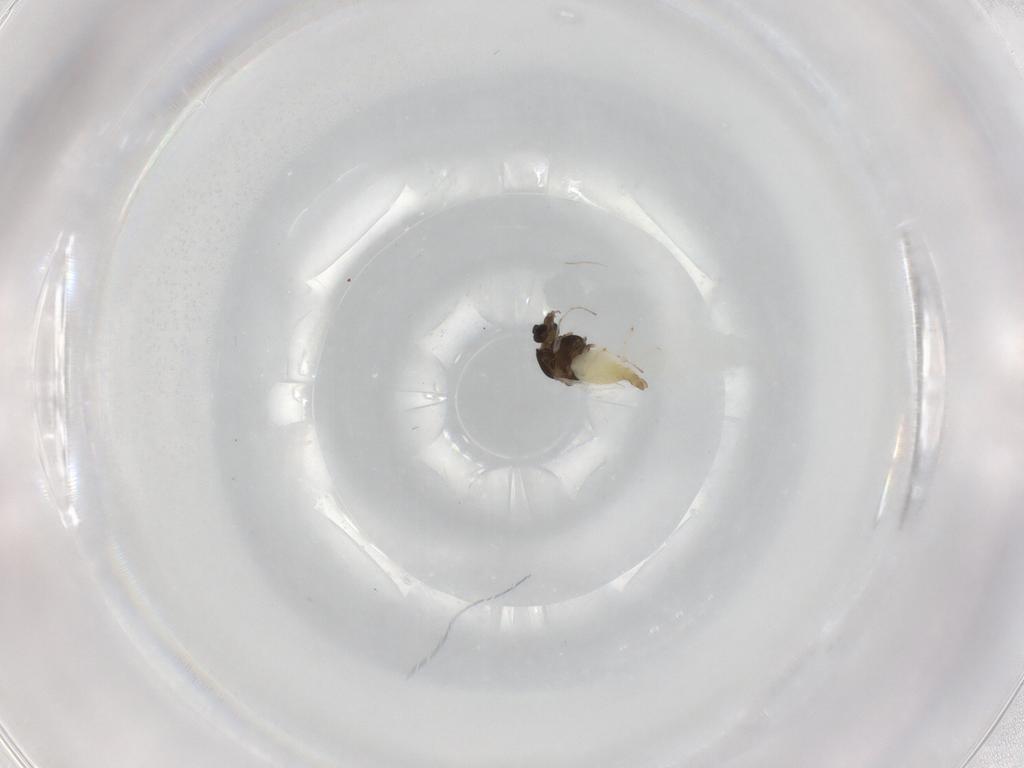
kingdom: Animalia
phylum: Arthropoda
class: Insecta
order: Diptera
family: Chironomidae
